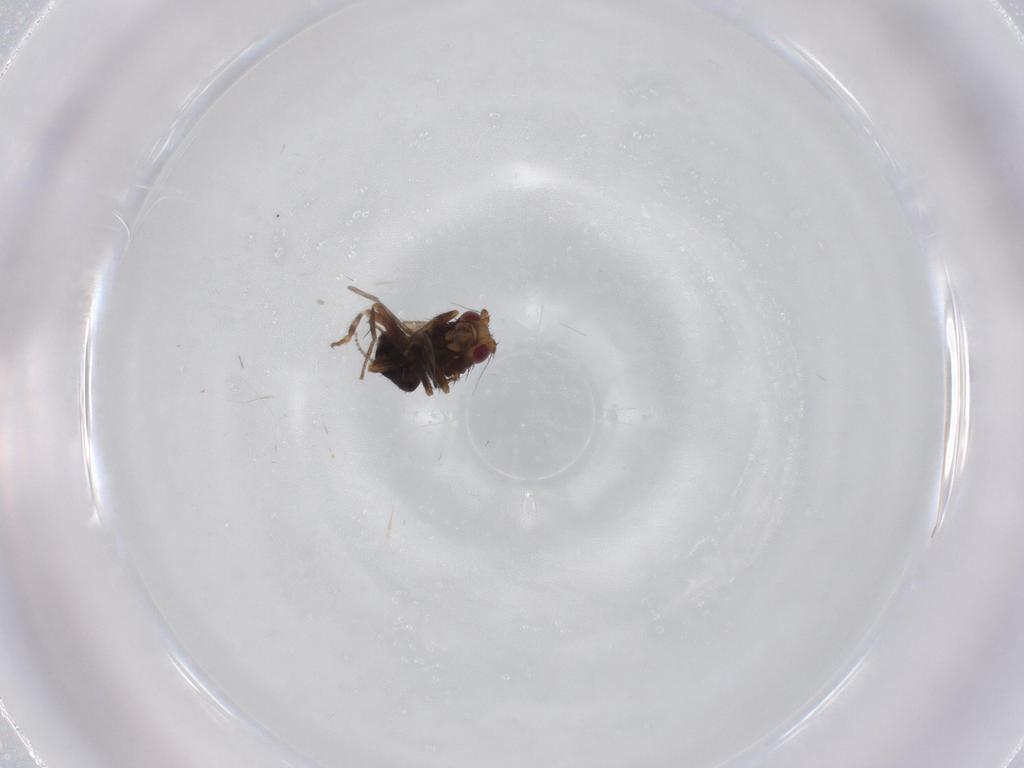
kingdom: Animalia
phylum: Arthropoda
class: Insecta
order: Diptera
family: Sphaeroceridae
